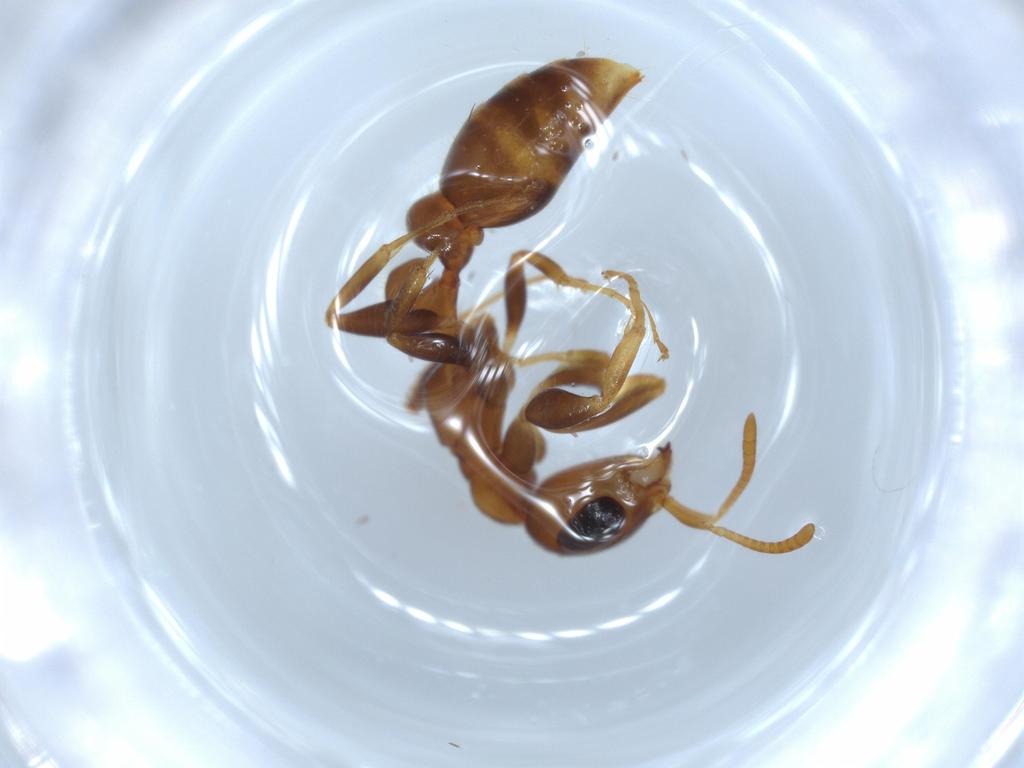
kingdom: Animalia
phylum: Arthropoda
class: Insecta
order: Hymenoptera
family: Formicidae
